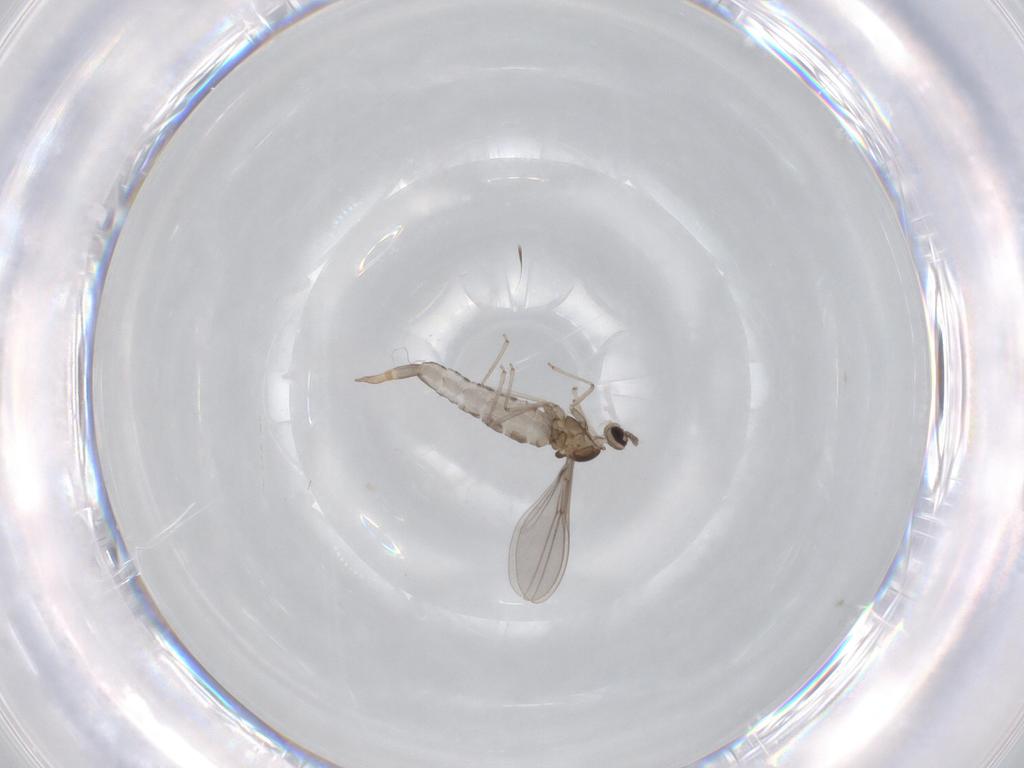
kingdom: Animalia
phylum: Arthropoda
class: Insecta
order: Diptera
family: Cecidomyiidae
